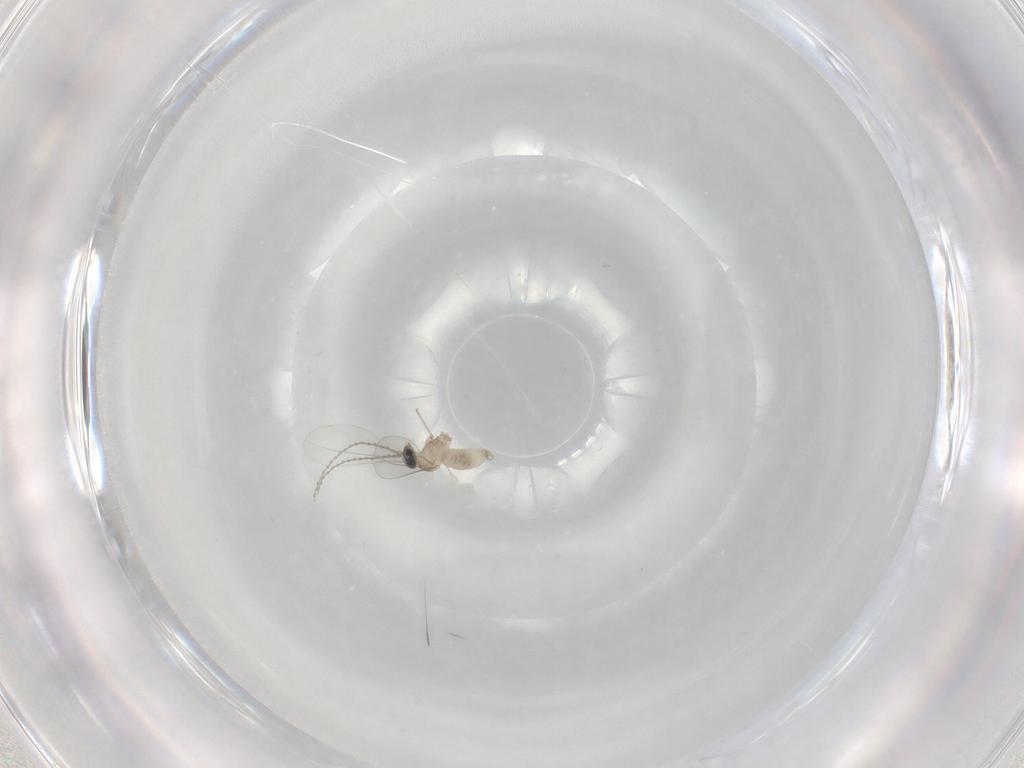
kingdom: Animalia
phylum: Arthropoda
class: Insecta
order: Diptera
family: Cecidomyiidae
